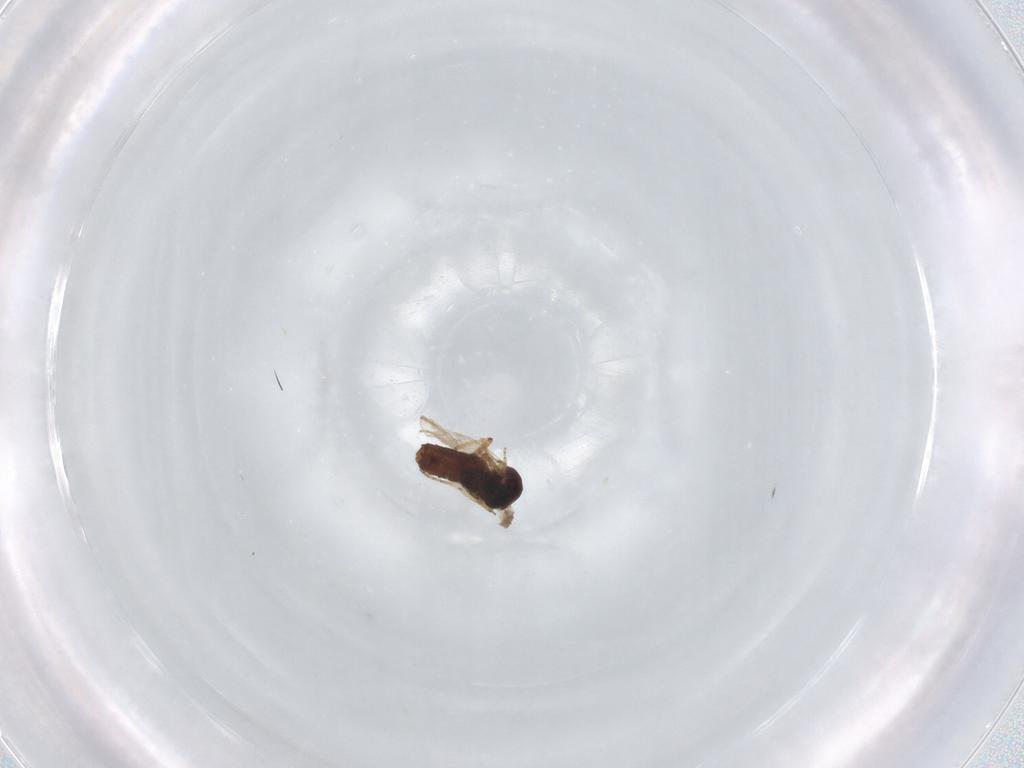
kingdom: Animalia
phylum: Arthropoda
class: Insecta
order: Diptera
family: Ceratopogonidae
